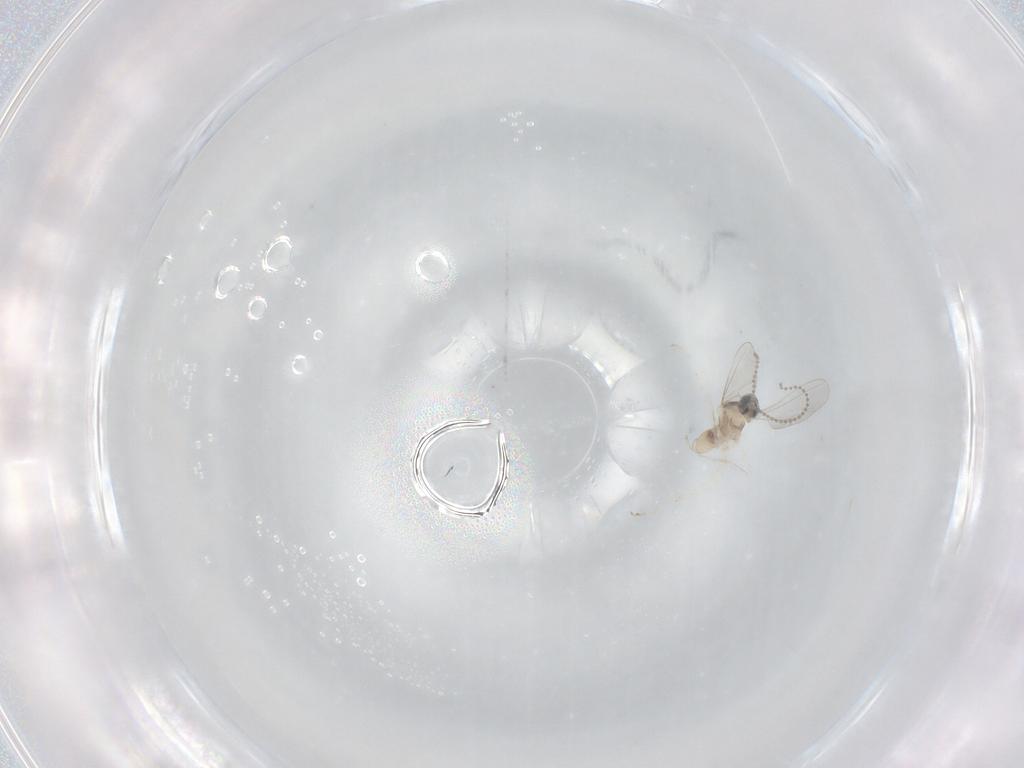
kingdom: Animalia
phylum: Arthropoda
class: Insecta
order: Diptera
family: Cecidomyiidae
